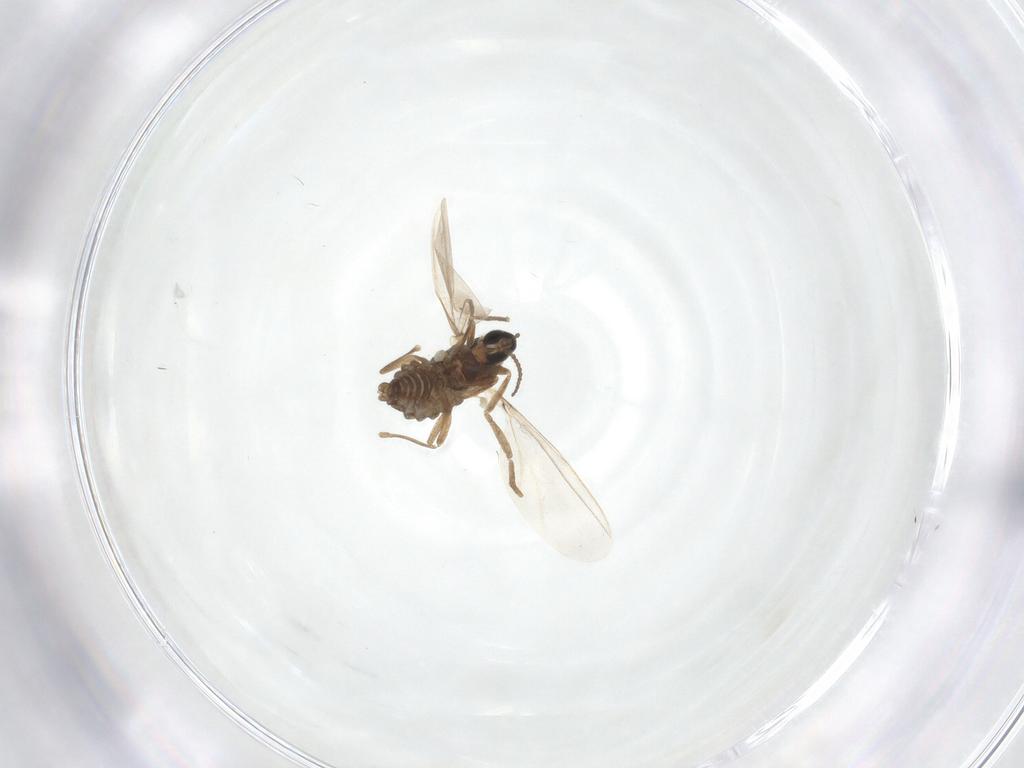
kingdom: Animalia
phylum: Arthropoda
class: Insecta
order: Diptera
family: Cecidomyiidae
